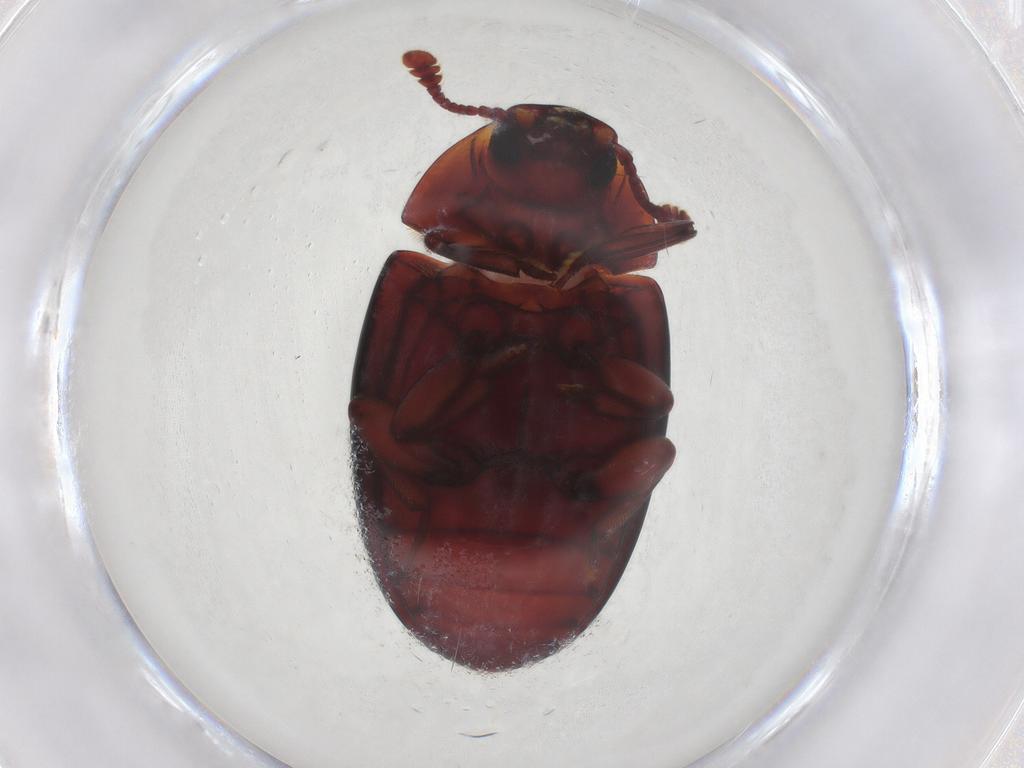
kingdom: Animalia
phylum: Arthropoda
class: Insecta
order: Coleoptera
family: Zopheridae
